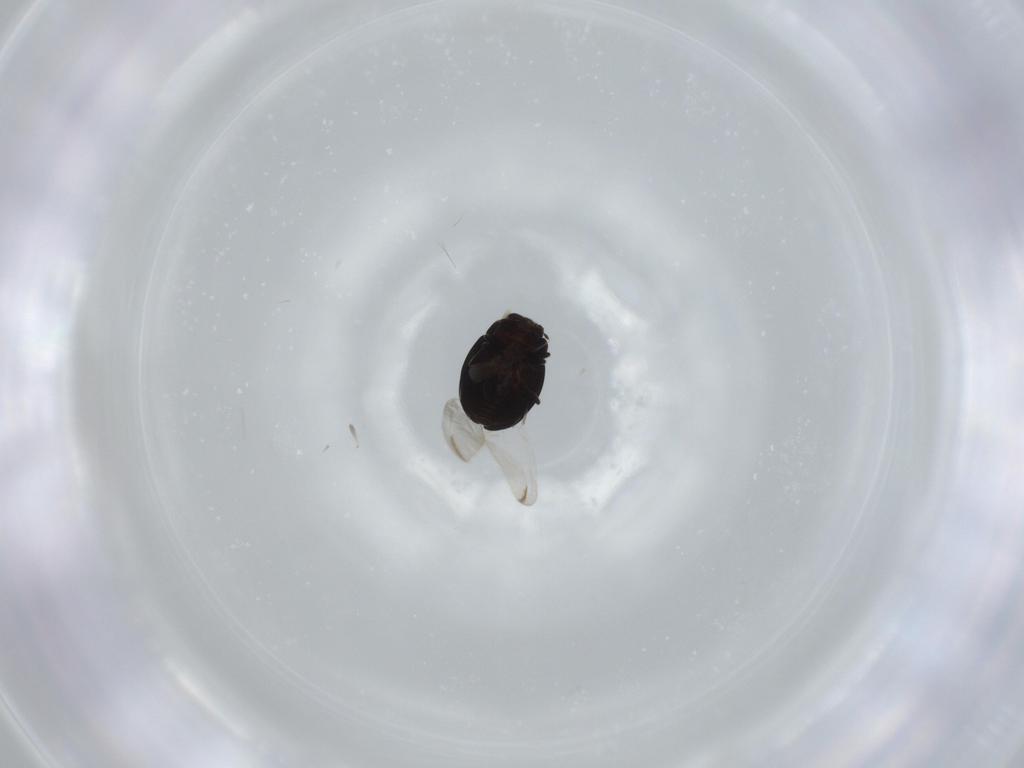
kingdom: Animalia
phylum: Arthropoda
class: Insecta
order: Coleoptera
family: Coccinellidae
